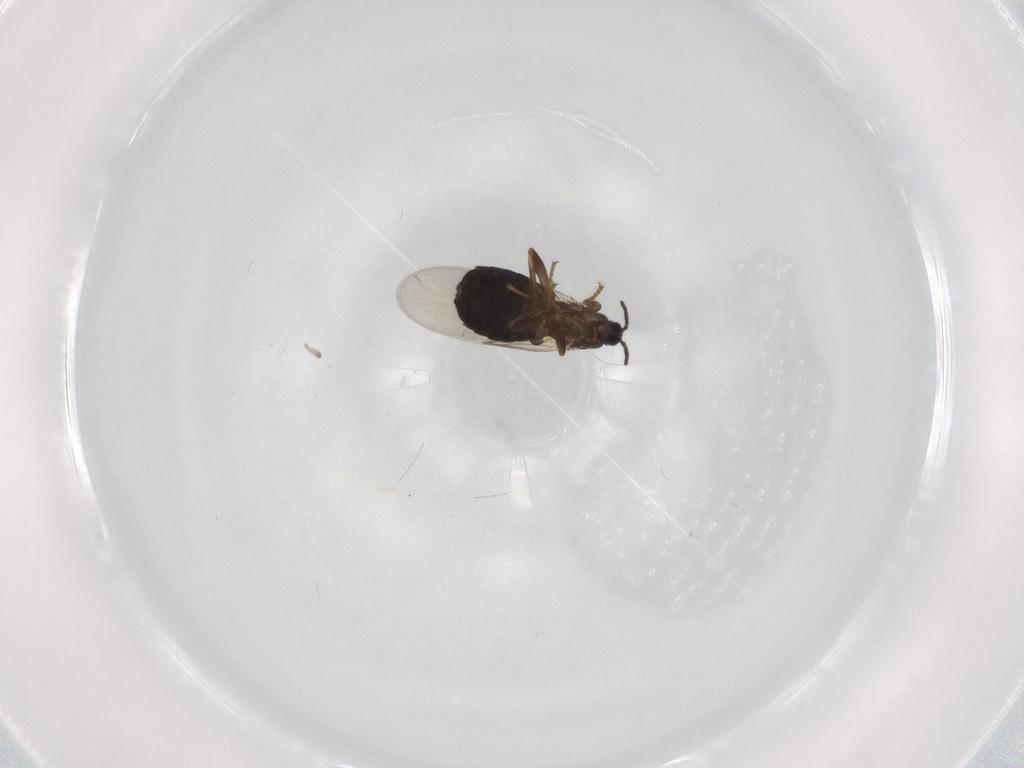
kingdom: Animalia
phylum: Arthropoda
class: Insecta
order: Diptera
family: Scatopsidae
